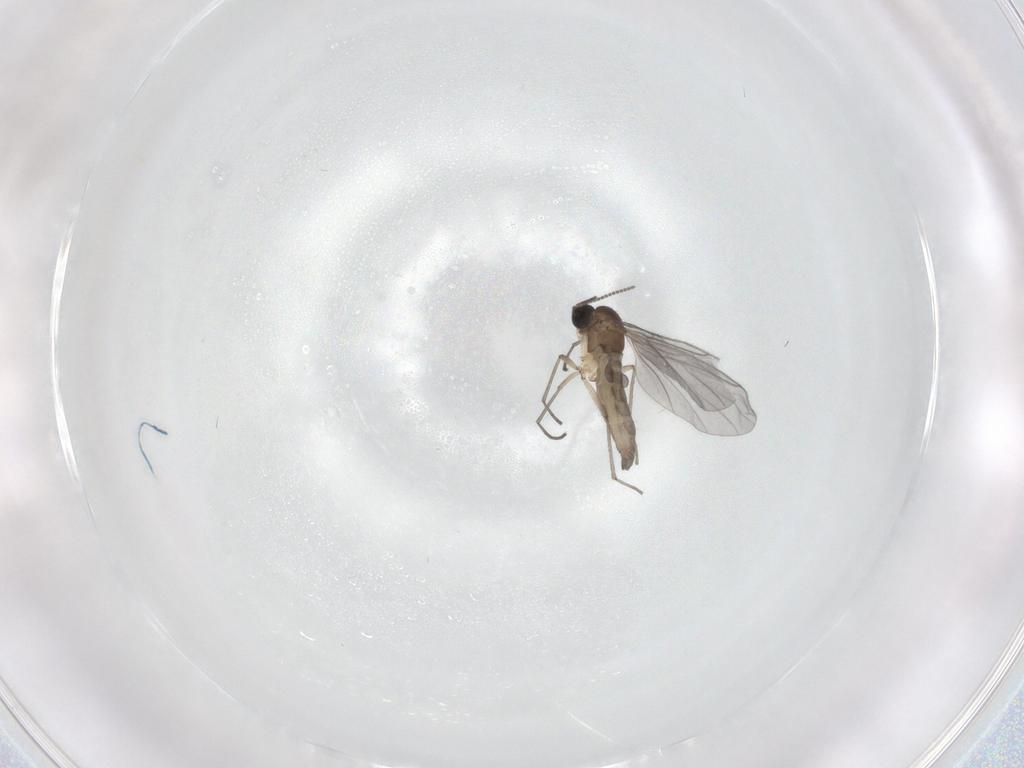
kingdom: Animalia
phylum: Arthropoda
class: Insecta
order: Diptera
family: Sciaridae
